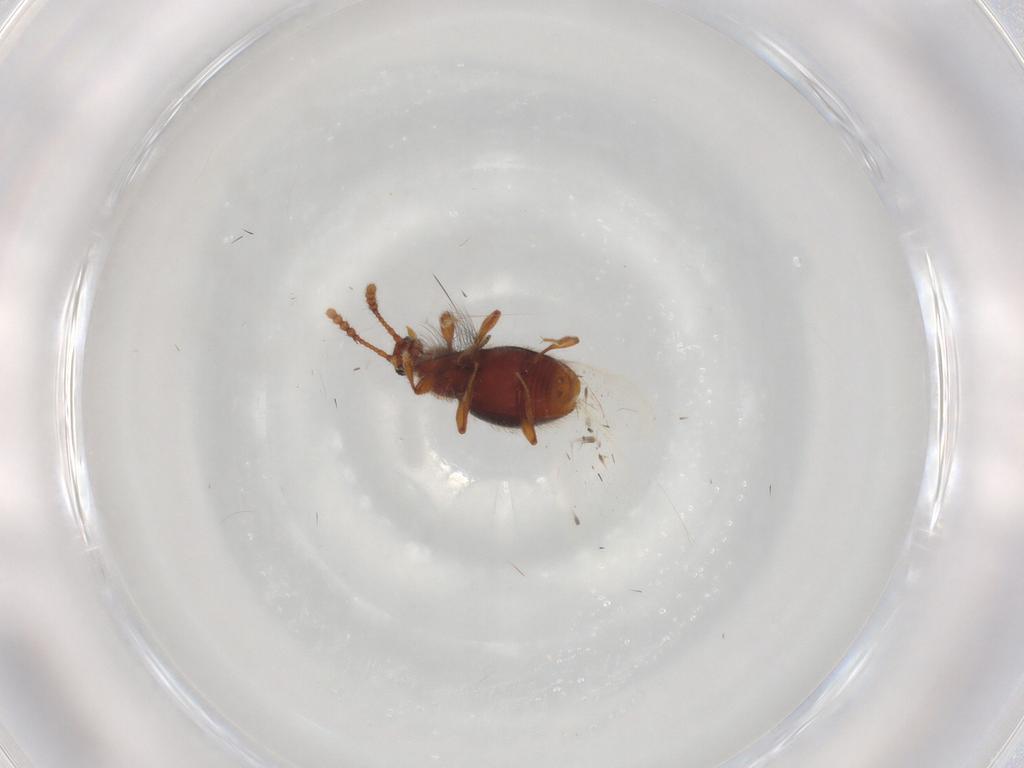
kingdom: Animalia
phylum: Arthropoda
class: Insecta
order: Coleoptera
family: Staphylinidae
